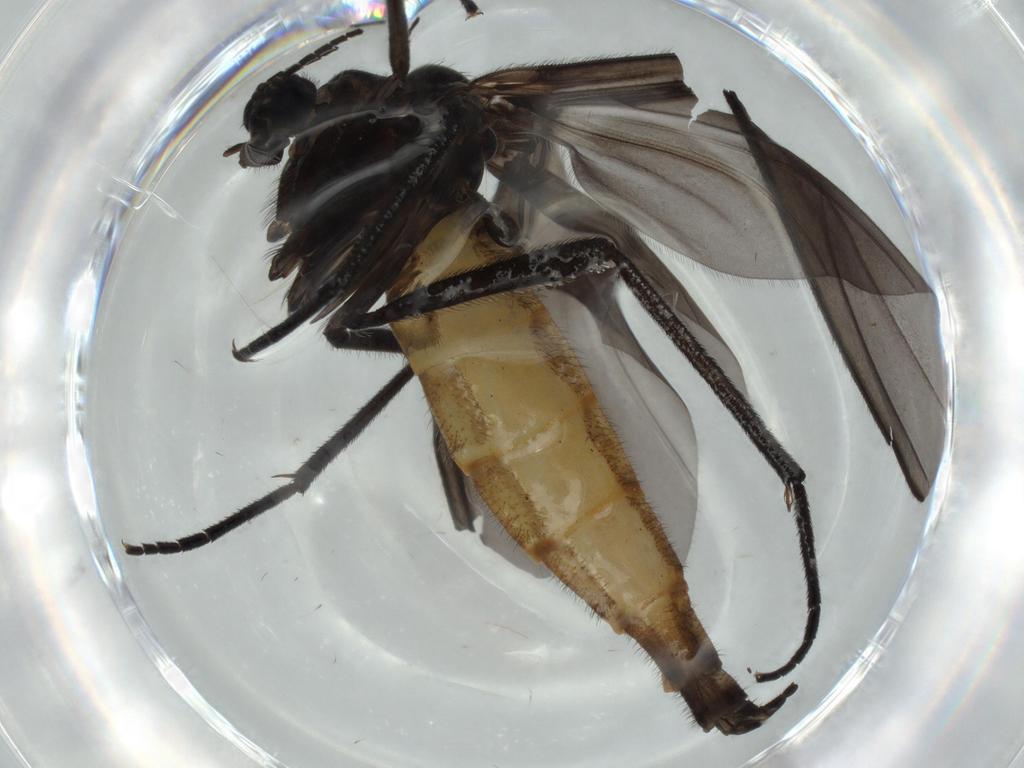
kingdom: Animalia
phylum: Arthropoda
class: Insecta
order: Diptera
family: Sciaridae
